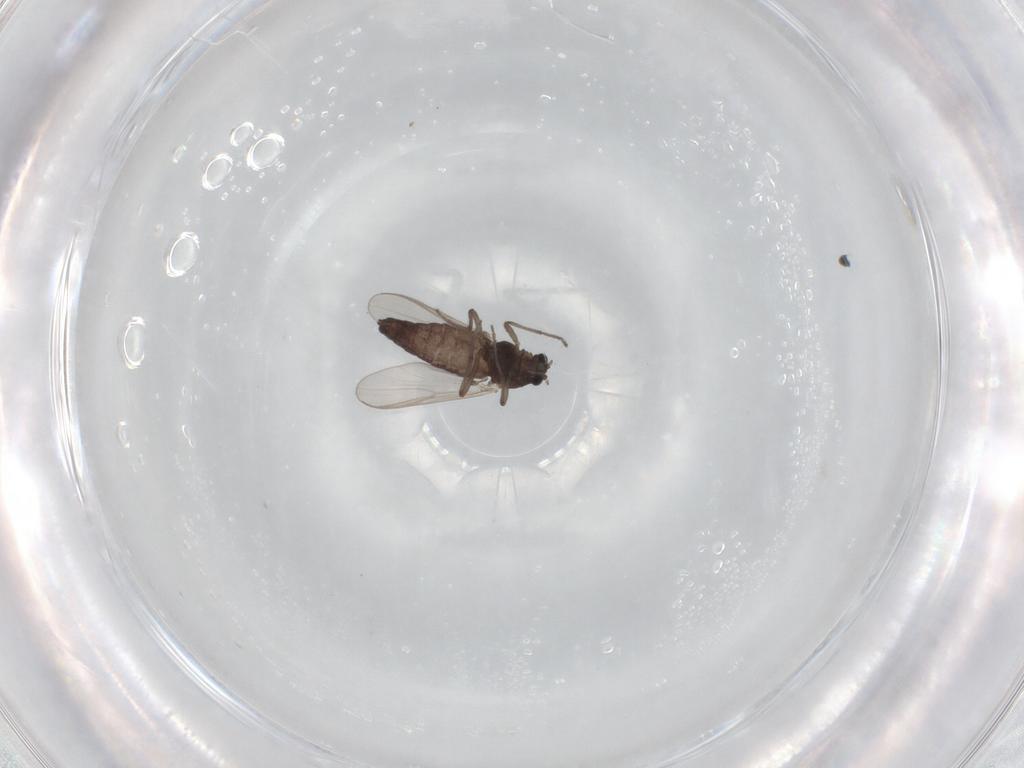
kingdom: Animalia
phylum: Arthropoda
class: Insecta
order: Diptera
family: Chironomidae
